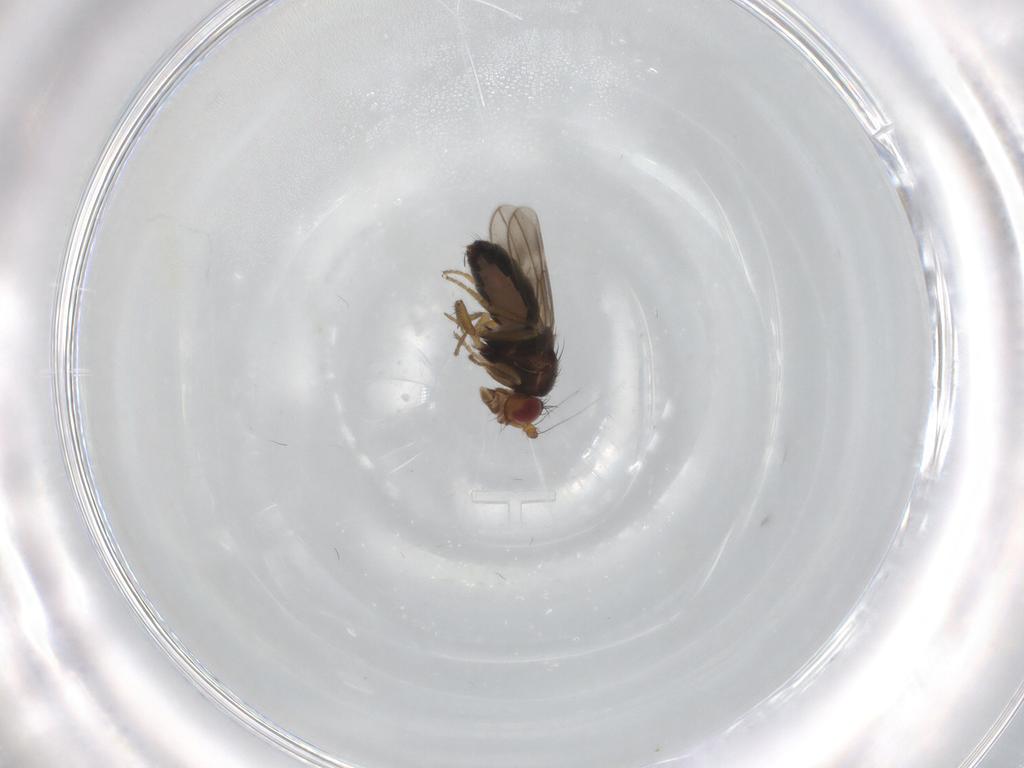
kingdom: Animalia
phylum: Arthropoda
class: Insecta
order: Diptera
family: Sphaeroceridae
